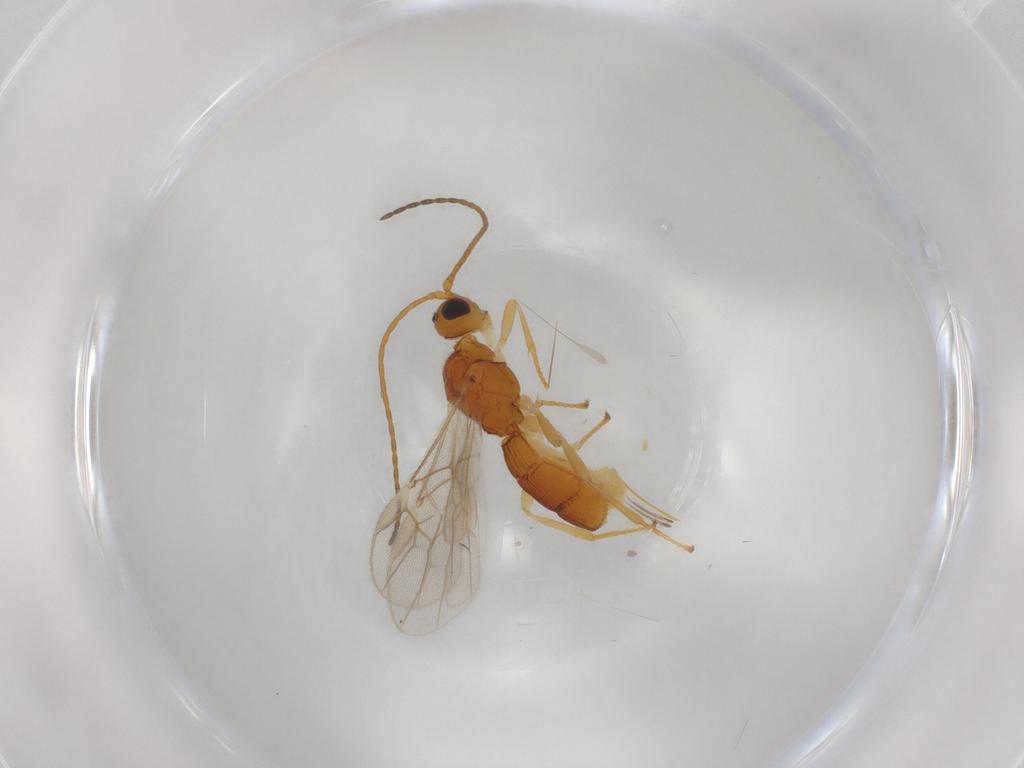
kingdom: Animalia
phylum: Arthropoda
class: Insecta
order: Hymenoptera
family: Braconidae
